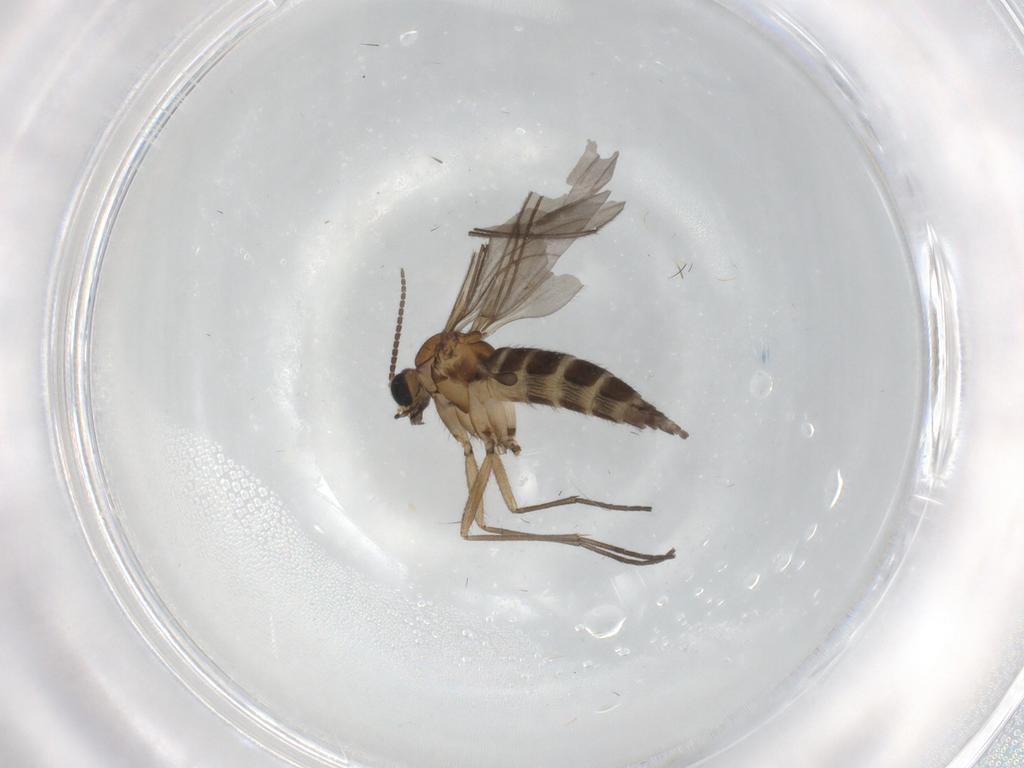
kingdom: Animalia
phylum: Arthropoda
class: Insecta
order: Diptera
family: Sciaridae
